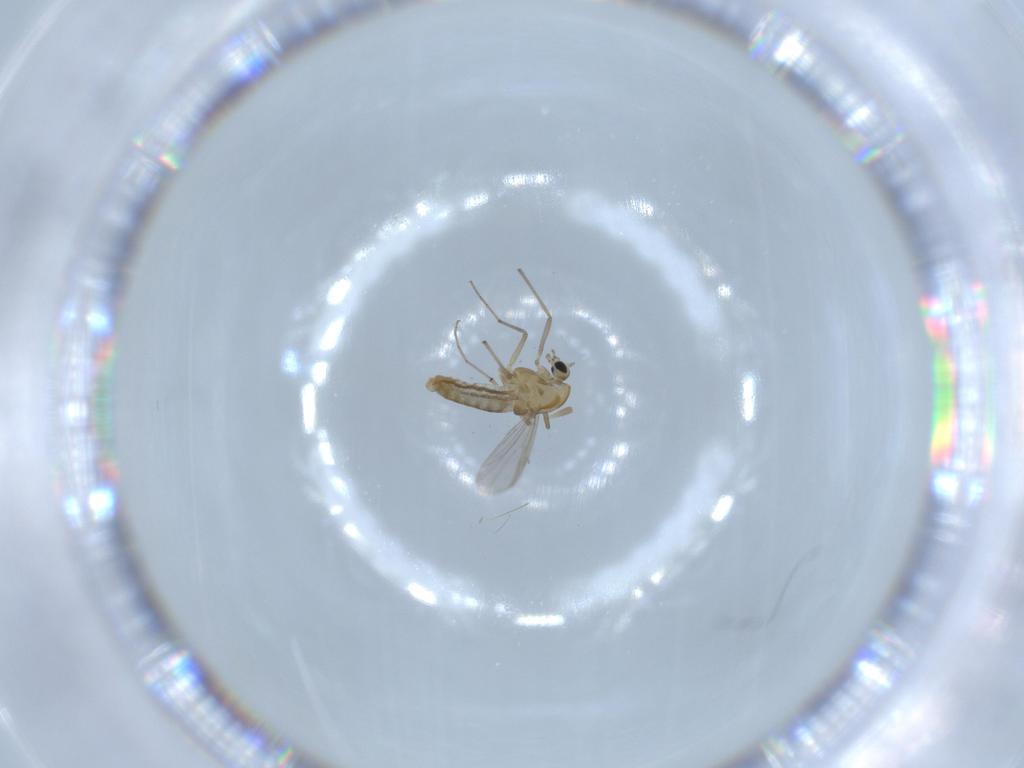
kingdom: Animalia
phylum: Arthropoda
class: Insecta
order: Diptera
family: Chironomidae
